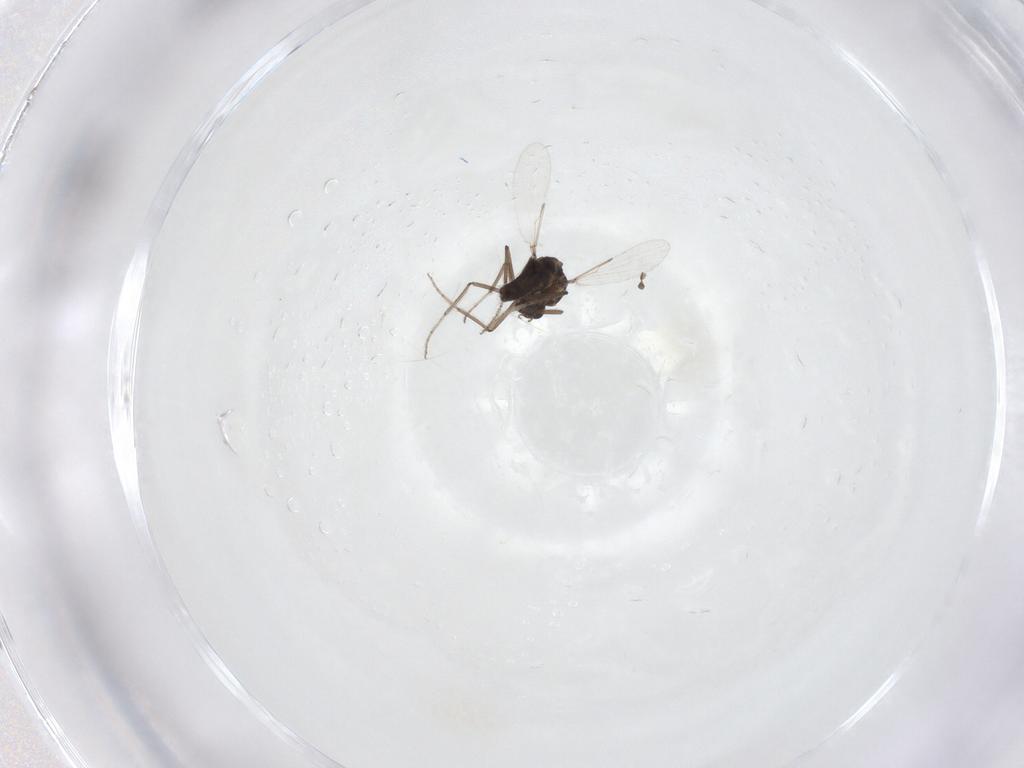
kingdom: Animalia
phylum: Arthropoda
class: Insecta
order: Diptera
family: Ceratopogonidae
